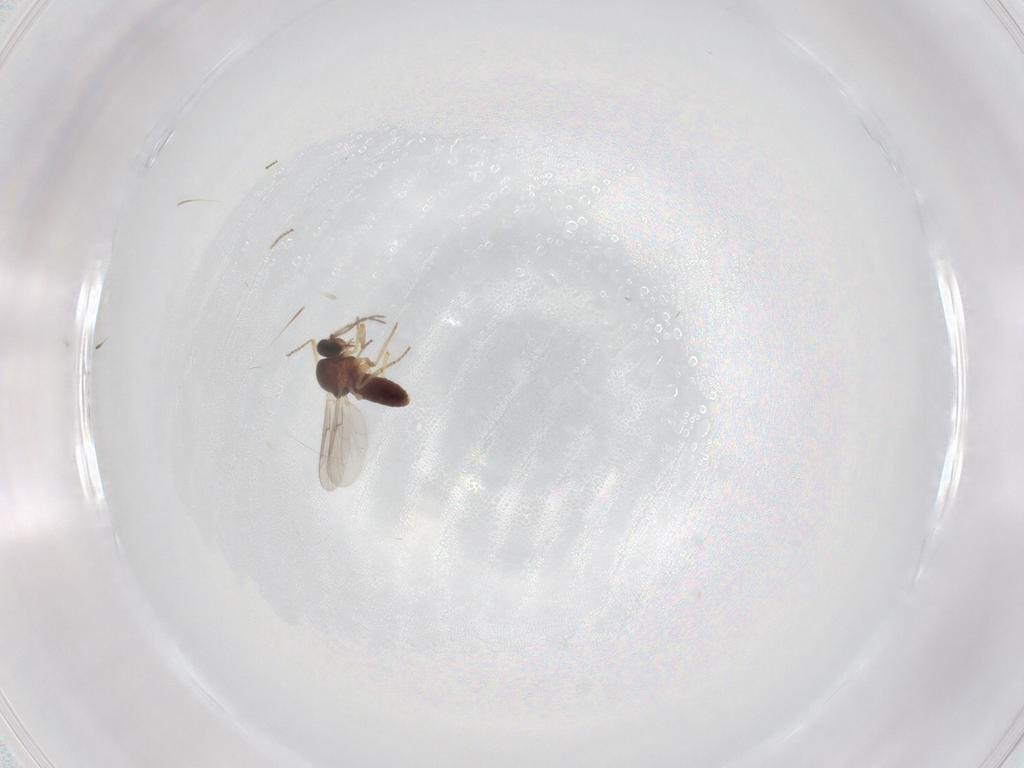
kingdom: Animalia
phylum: Arthropoda
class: Insecta
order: Diptera
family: Ceratopogonidae
